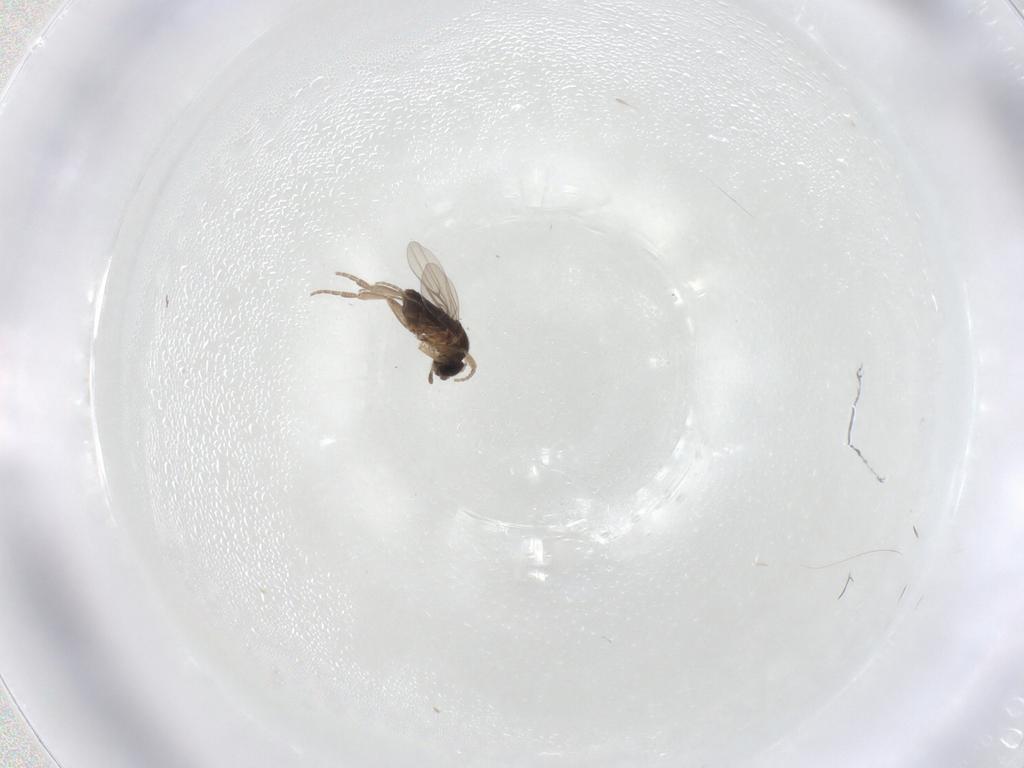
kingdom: Animalia
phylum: Arthropoda
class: Insecta
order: Diptera
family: Phoridae
